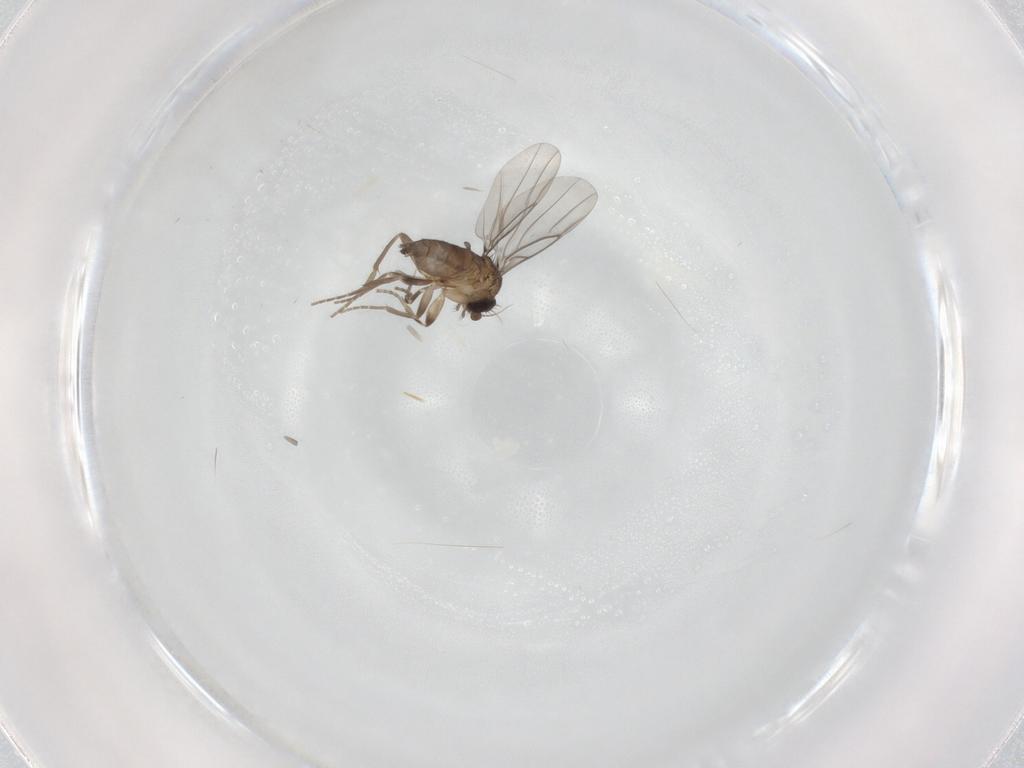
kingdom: Animalia
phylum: Arthropoda
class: Insecta
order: Diptera
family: Phoridae
